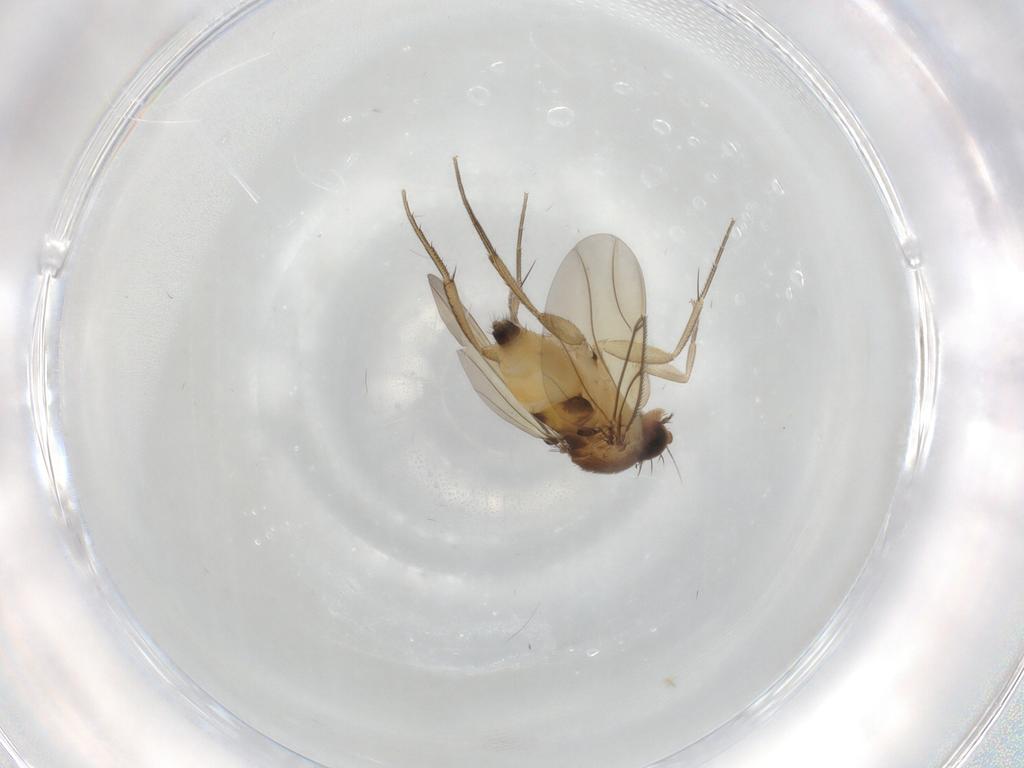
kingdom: Animalia
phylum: Arthropoda
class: Insecta
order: Diptera
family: Anisopodidae
